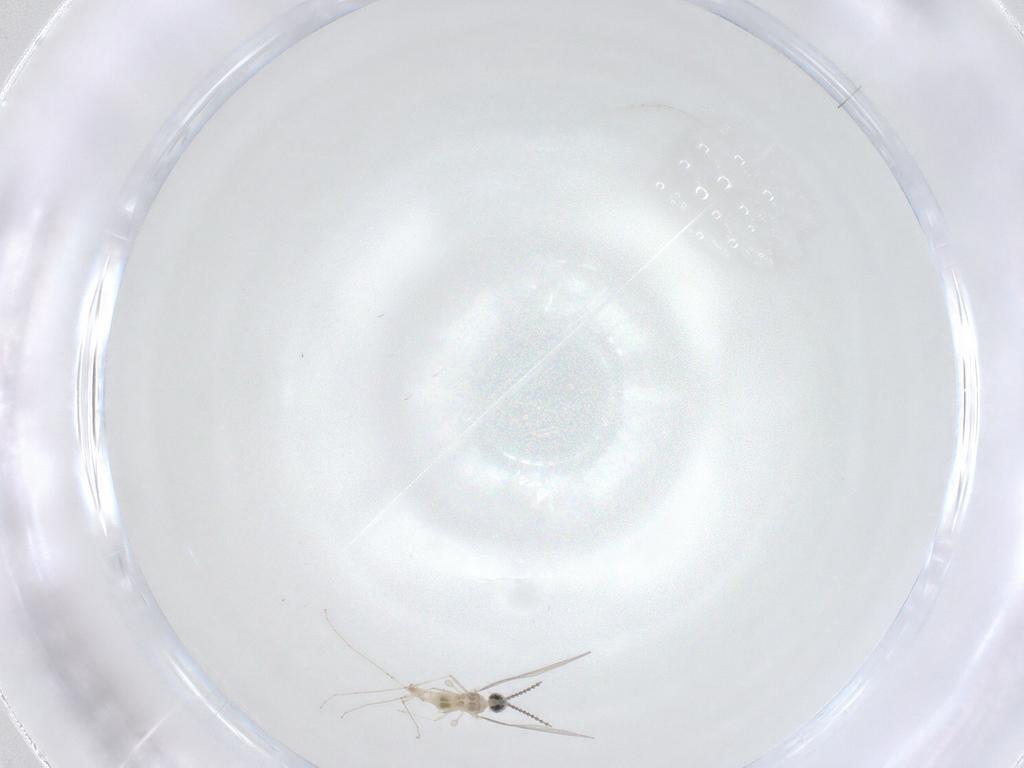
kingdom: Animalia
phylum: Arthropoda
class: Insecta
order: Diptera
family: Cecidomyiidae
